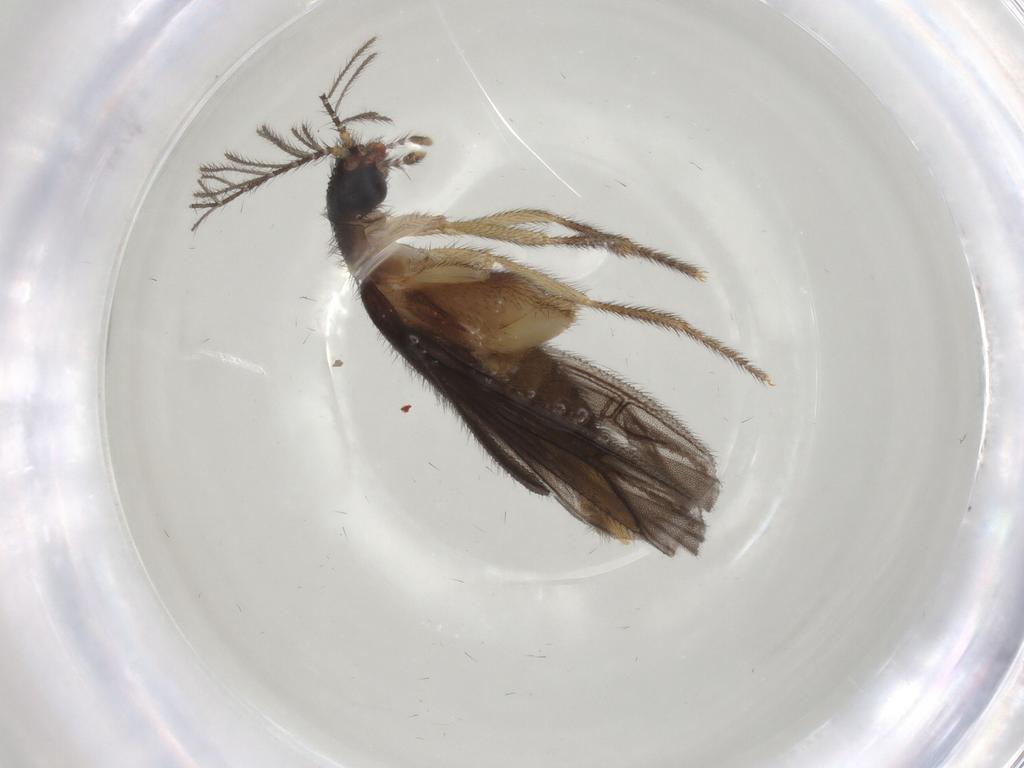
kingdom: Animalia
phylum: Arthropoda
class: Insecta
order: Coleoptera
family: Phengodidae
